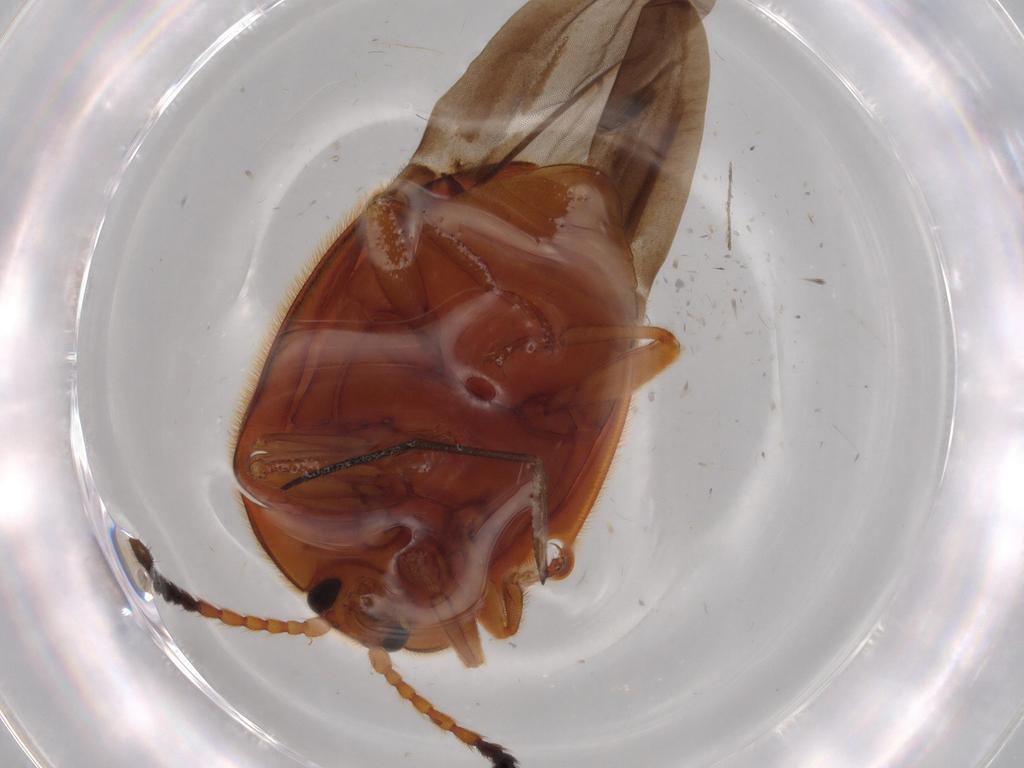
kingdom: Animalia
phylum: Arthropoda
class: Insecta
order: Coleoptera
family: Endomychidae
